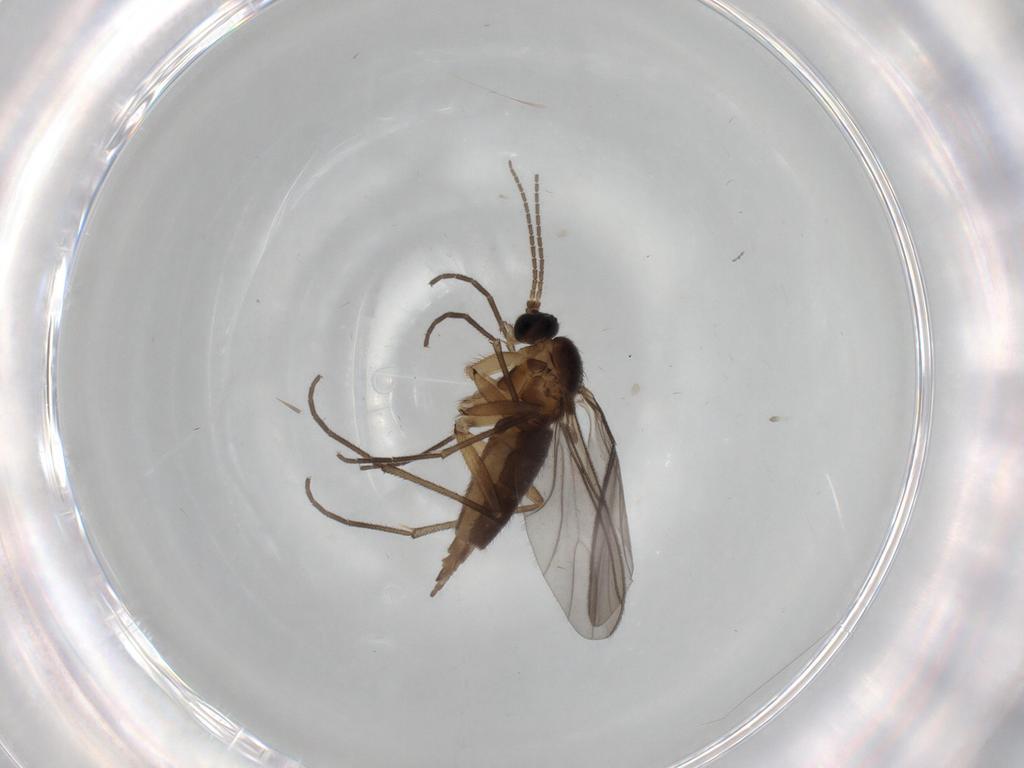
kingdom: Animalia
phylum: Arthropoda
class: Insecta
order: Diptera
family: Sciaridae
